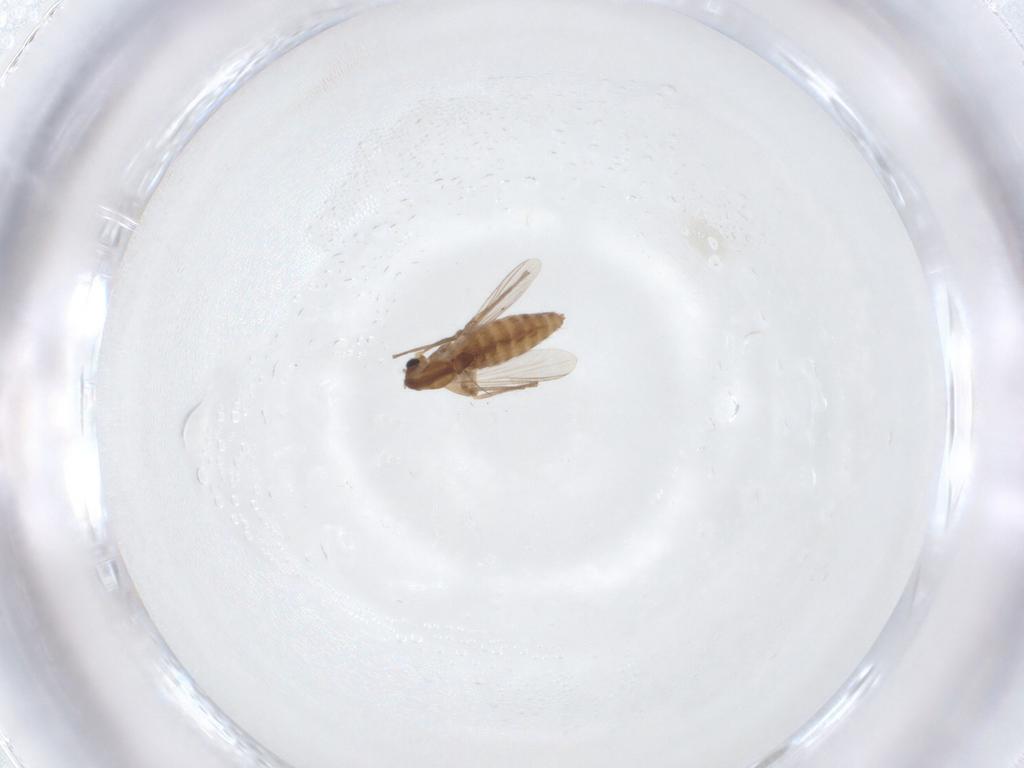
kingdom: Animalia
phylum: Arthropoda
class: Insecta
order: Diptera
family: Chironomidae
